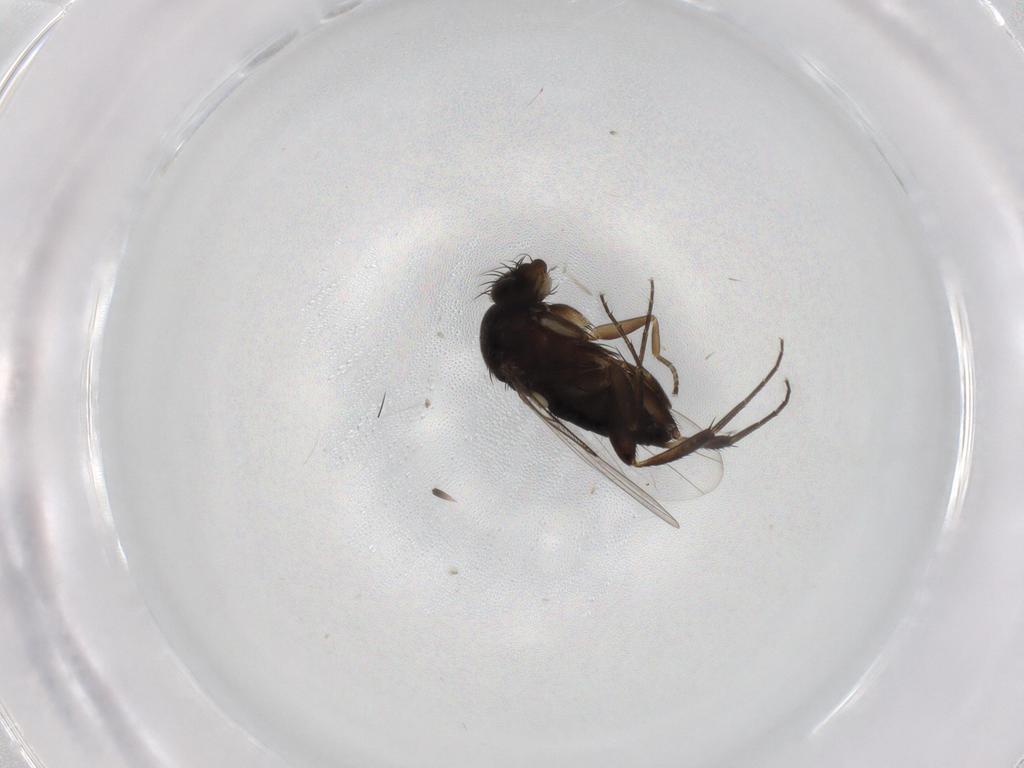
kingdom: Animalia
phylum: Arthropoda
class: Insecta
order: Diptera
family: Phoridae
